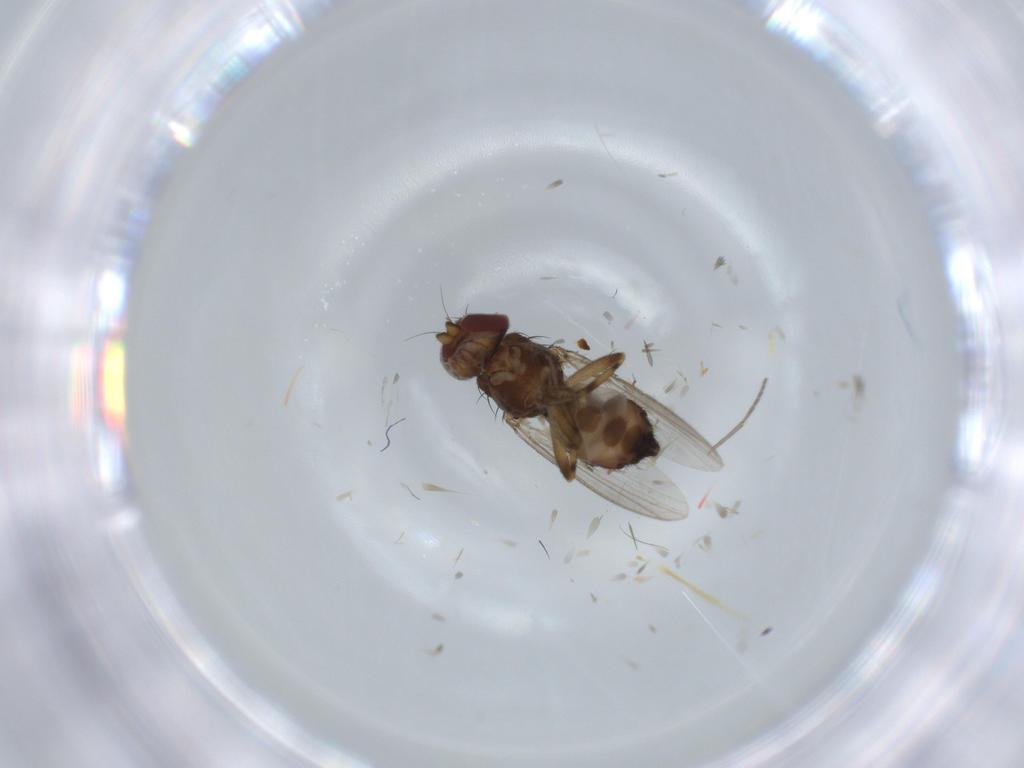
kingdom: Animalia
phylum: Arthropoda
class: Insecta
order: Diptera
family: Heleomyzidae
